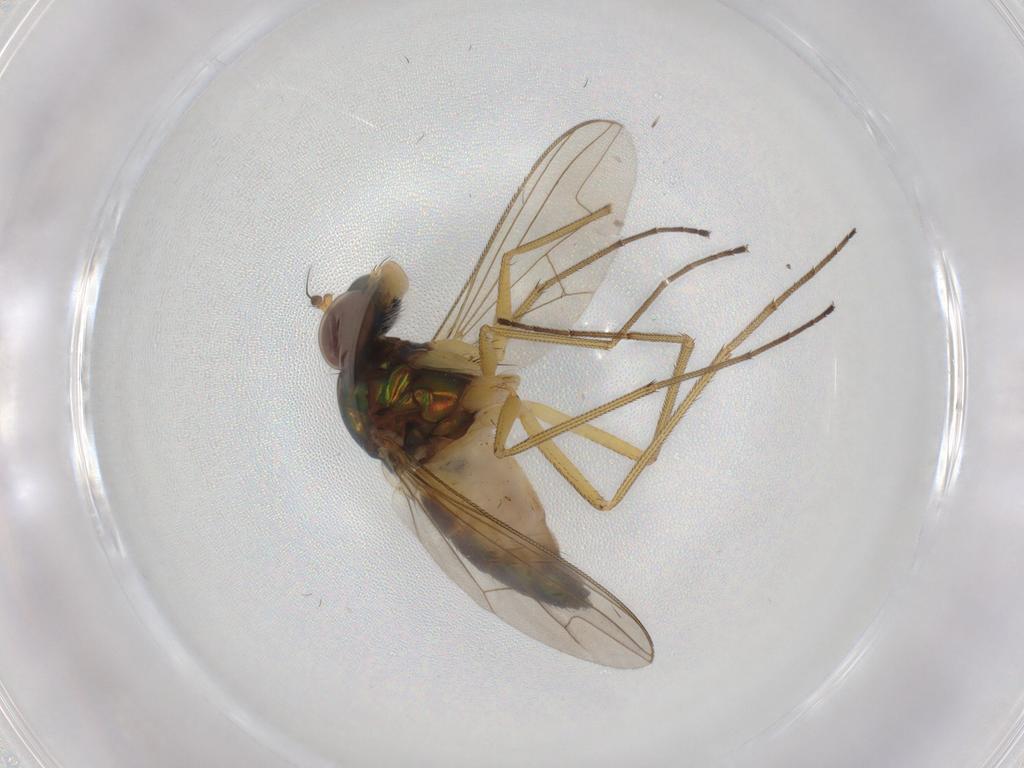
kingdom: Animalia
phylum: Arthropoda
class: Insecta
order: Diptera
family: Dolichopodidae
